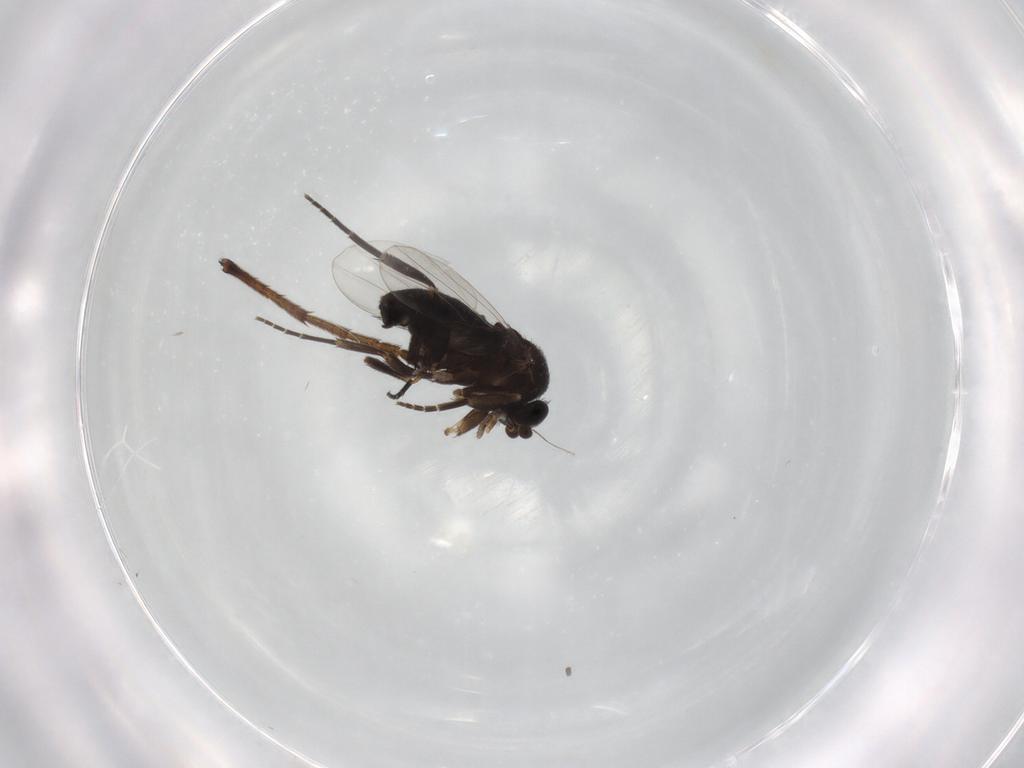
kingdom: Animalia
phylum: Arthropoda
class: Insecta
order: Diptera
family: Phoridae
